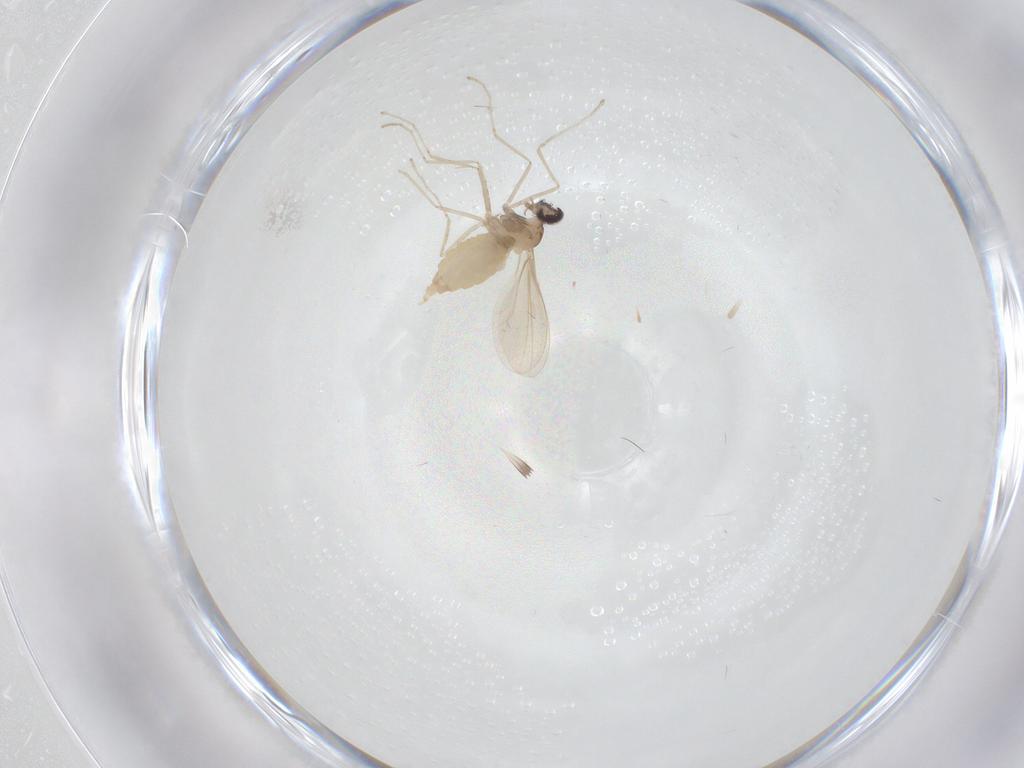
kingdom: Animalia
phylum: Arthropoda
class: Insecta
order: Diptera
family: Cecidomyiidae
